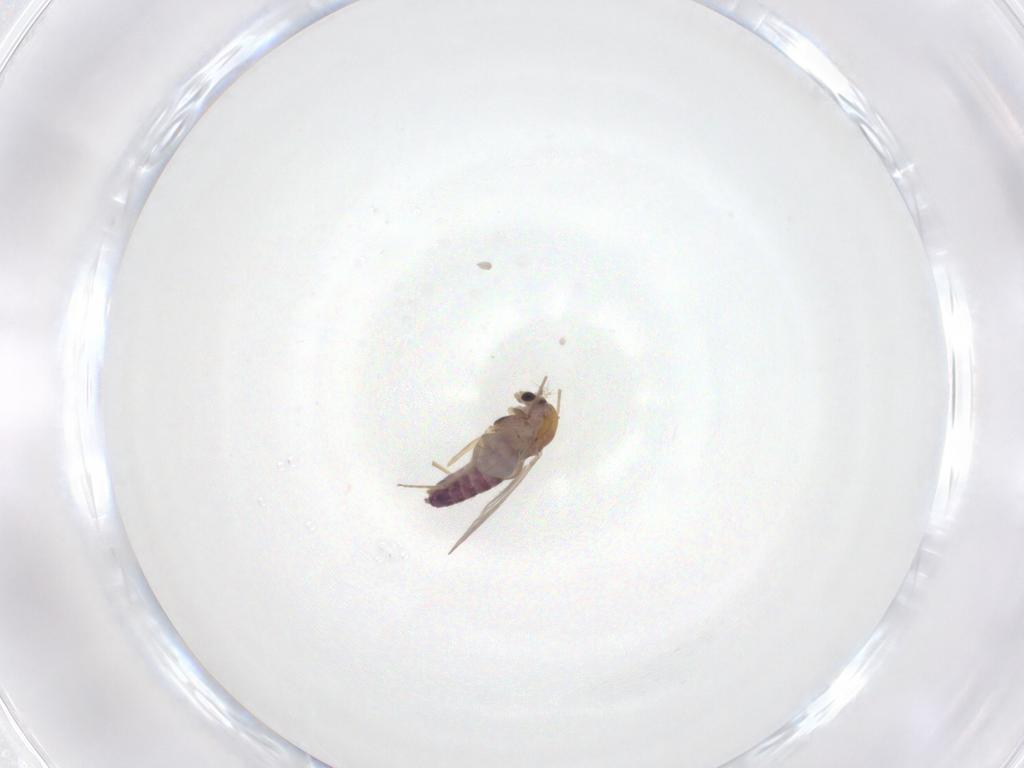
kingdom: Animalia
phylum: Arthropoda
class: Insecta
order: Diptera
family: Chironomidae
